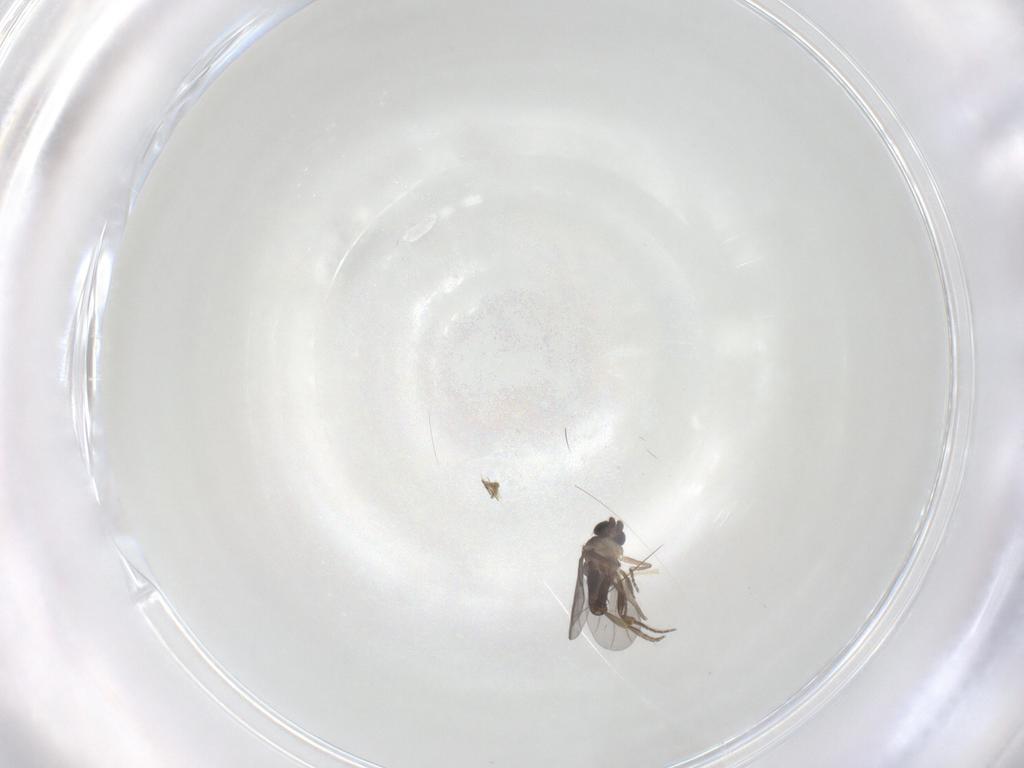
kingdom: Animalia
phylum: Arthropoda
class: Insecta
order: Diptera
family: Chironomidae
